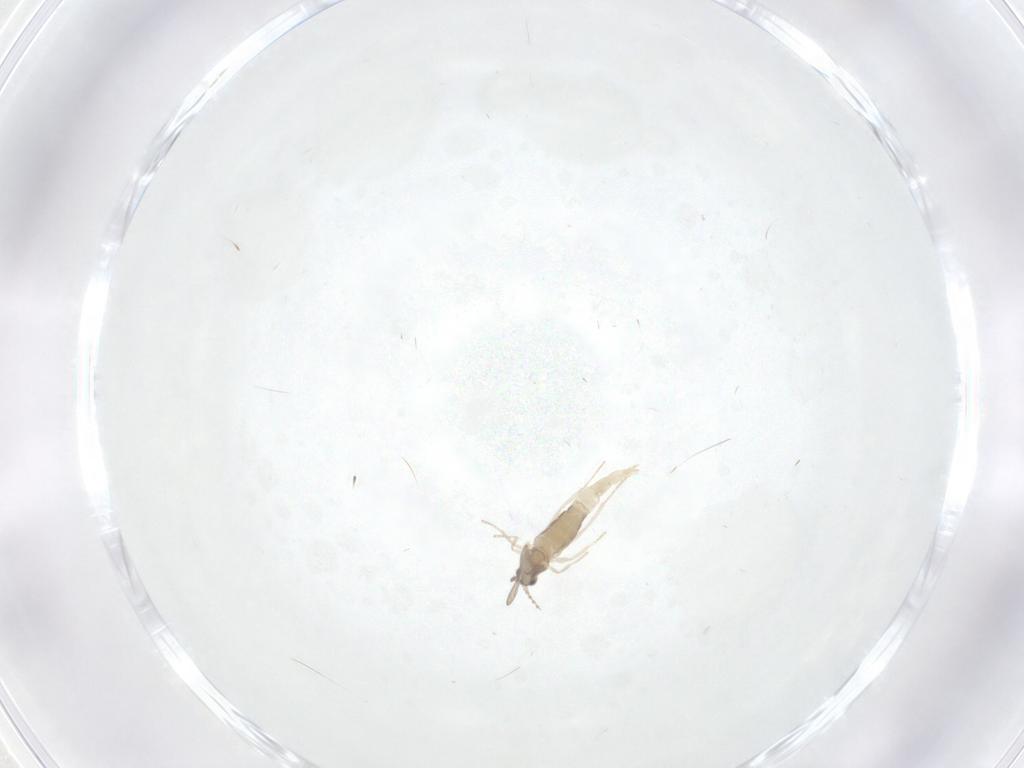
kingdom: Animalia
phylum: Arthropoda
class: Insecta
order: Diptera
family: Cecidomyiidae
